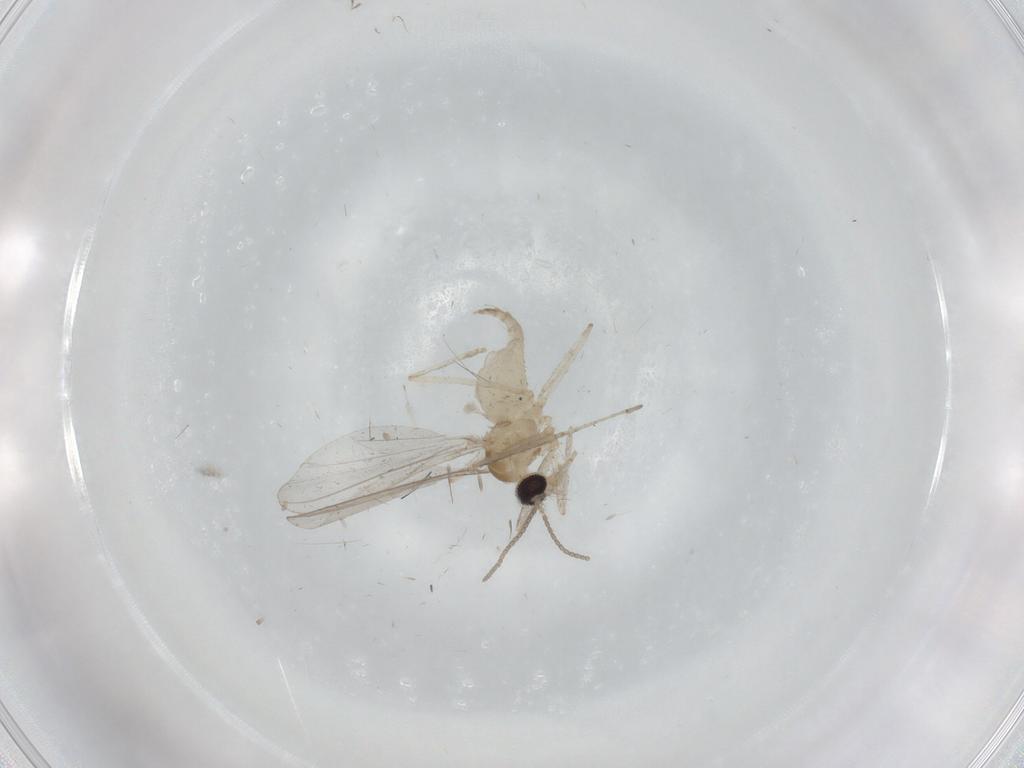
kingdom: Animalia
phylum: Arthropoda
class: Insecta
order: Diptera
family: Cecidomyiidae
